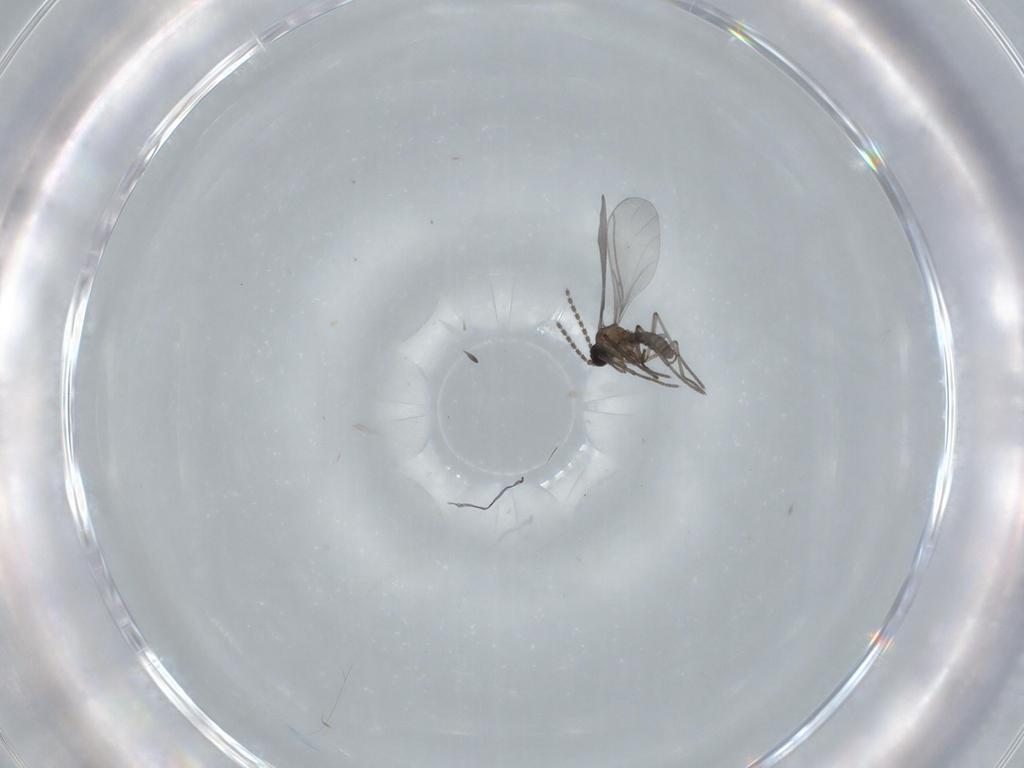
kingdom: Animalia
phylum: Arthropoda
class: Insecta
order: Diptera
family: Sciaridae
